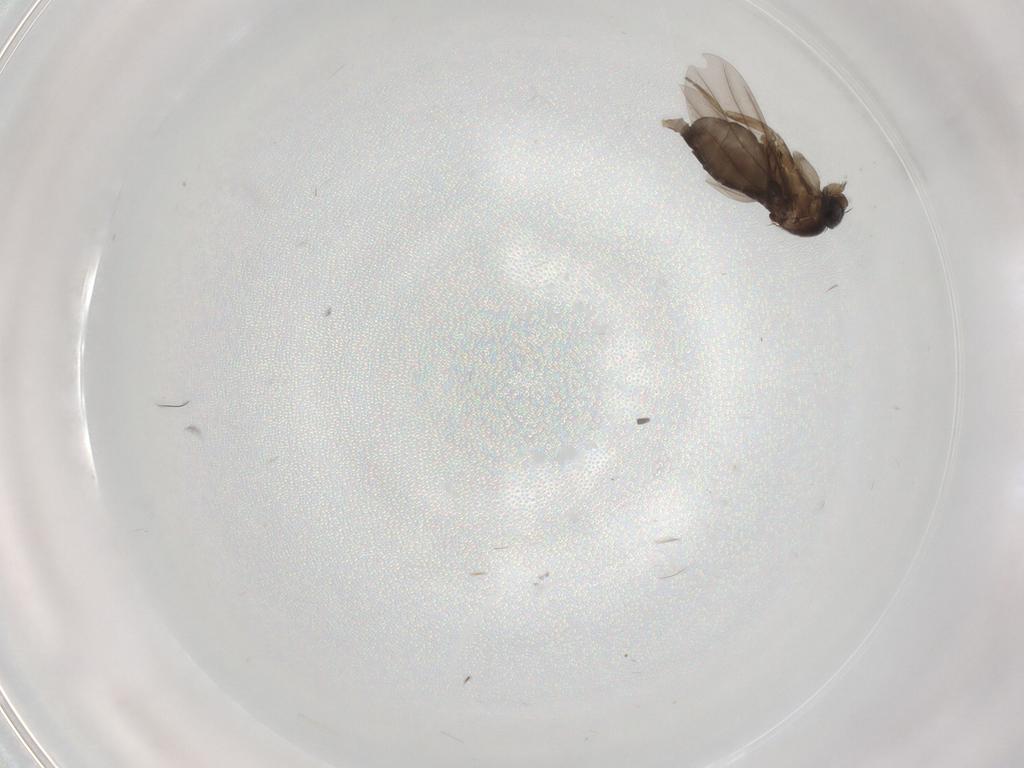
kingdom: Animalia
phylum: Arthropoda
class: Insecta
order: Diptera
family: Phoridae
